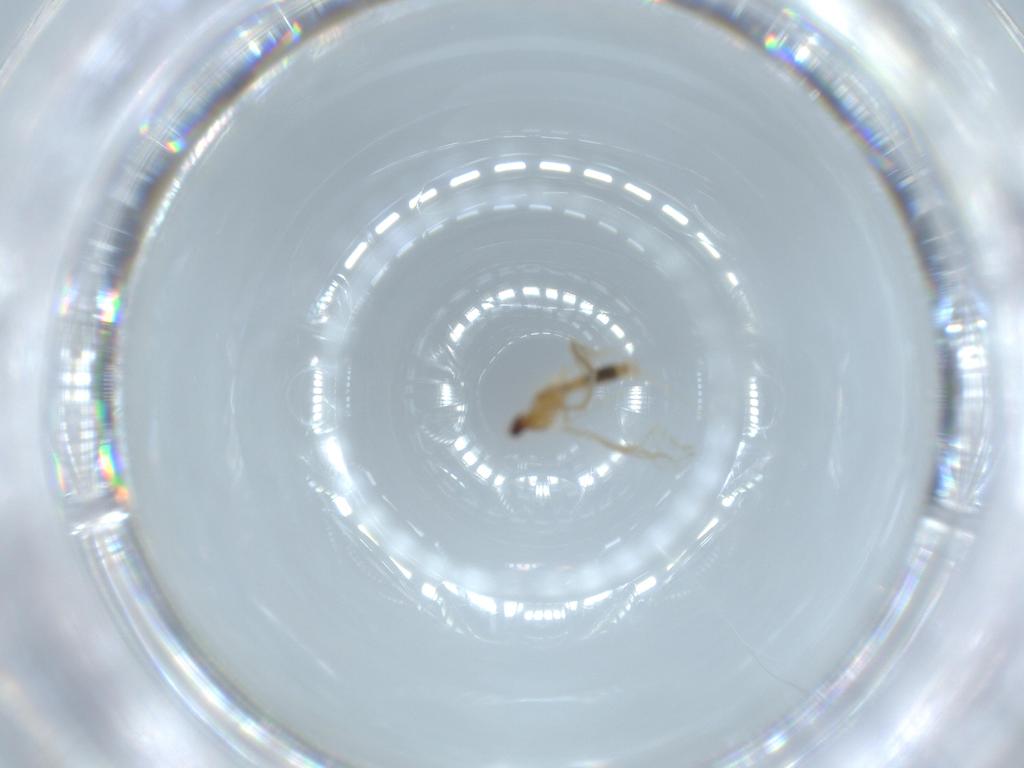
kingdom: Animalia
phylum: Arthropoda
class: Insecta
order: Diptera
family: Cecidomyiidae
